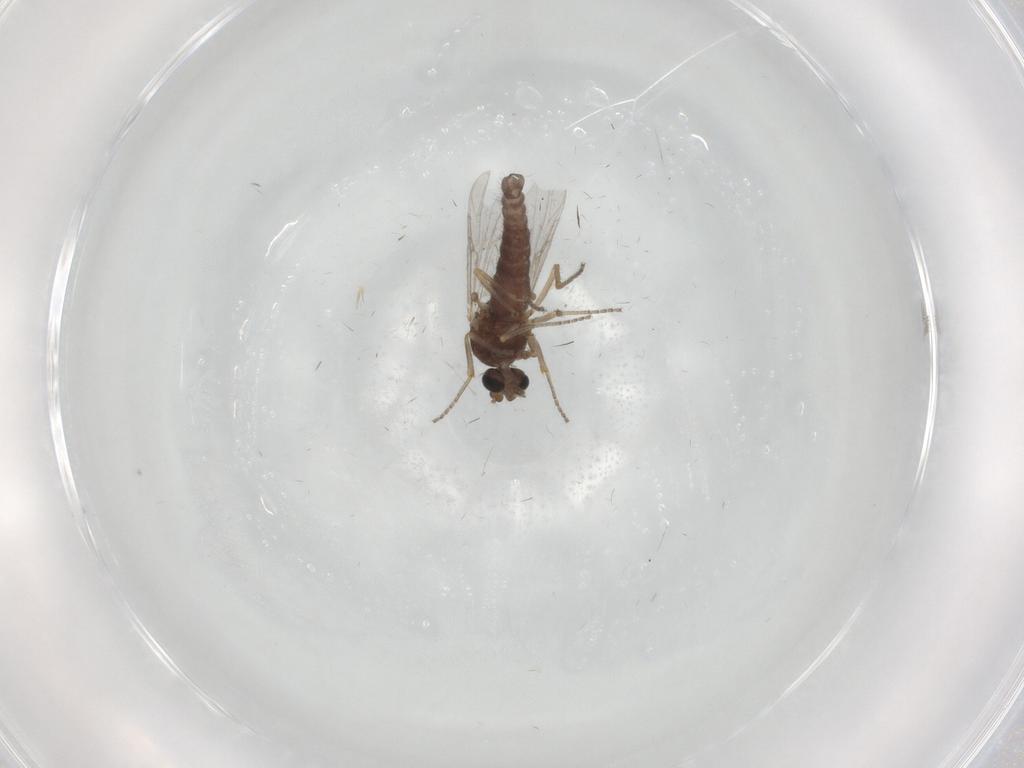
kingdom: Animalia
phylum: Arthropoda
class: Insecta
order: Diptera
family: Ceratopogonidae
